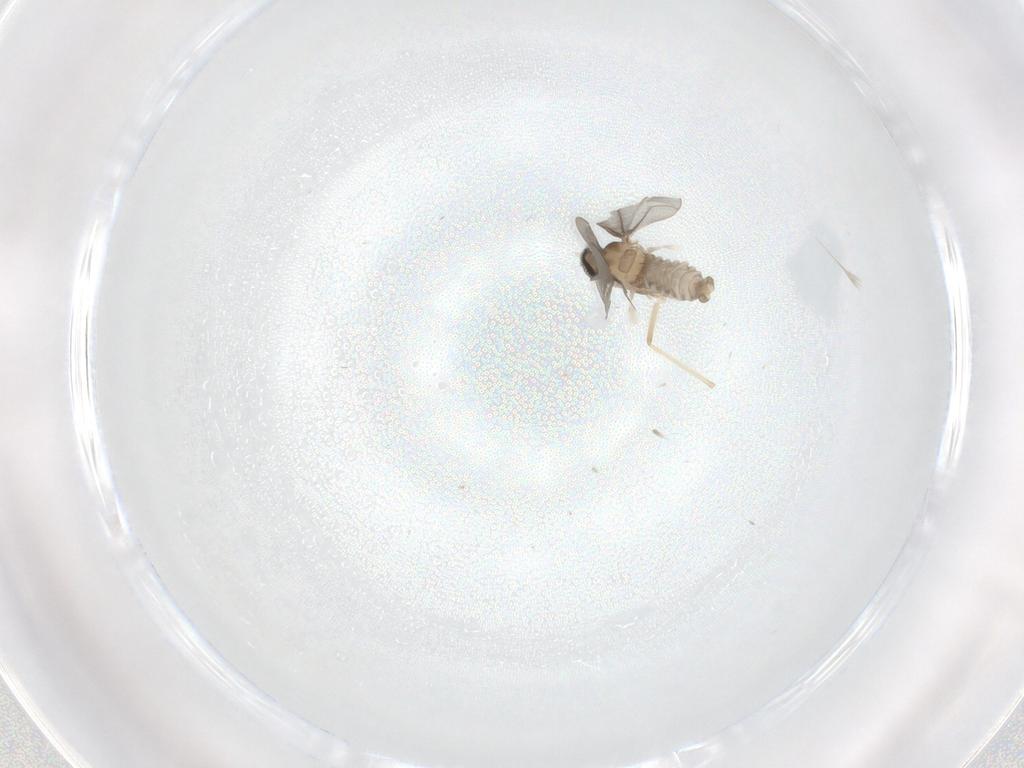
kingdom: Animalia
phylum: Arthropoda
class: Insecta
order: Diptera
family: Cecidomyiidae
